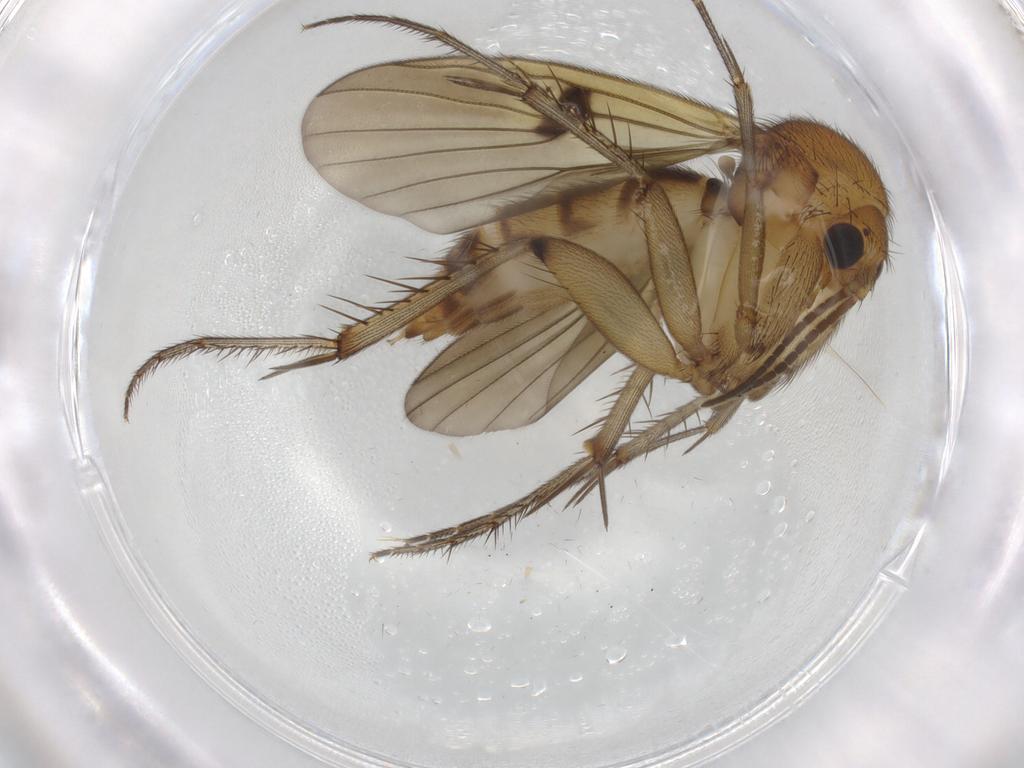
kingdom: Animalia
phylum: Arthropoda
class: Insecta
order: Diptera
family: Mycetophilidae
